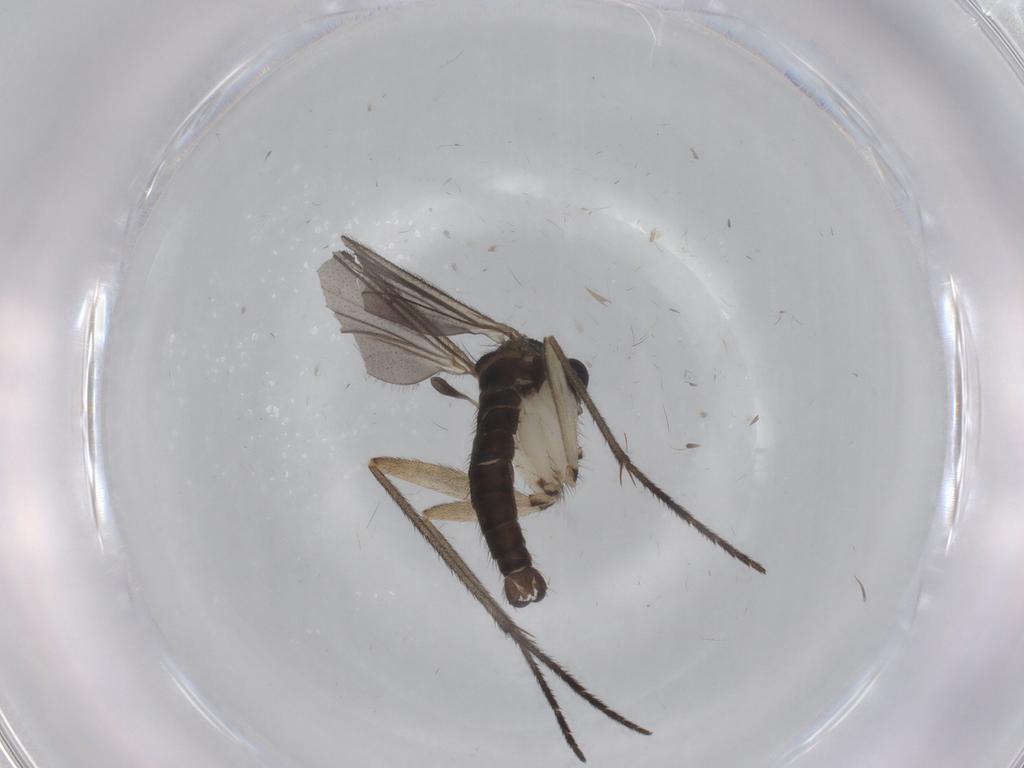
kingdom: Animalia
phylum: Arthropoda
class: Insecta
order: Diptera
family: Sciaridae
